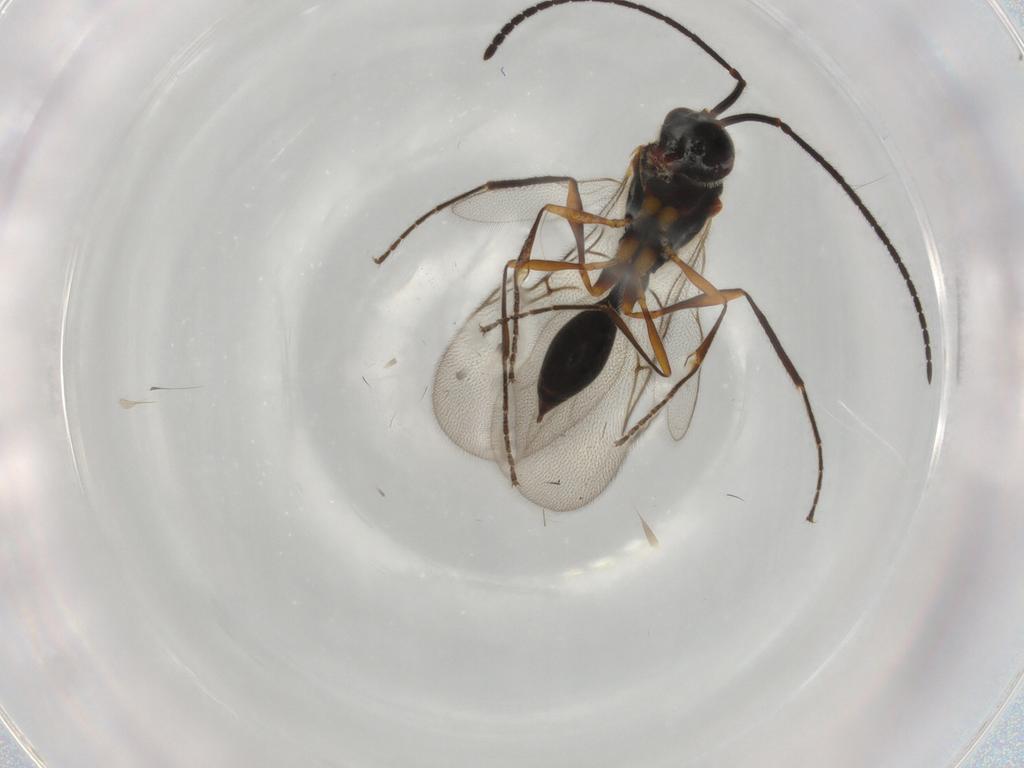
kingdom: Animalia
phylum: Arthropoda
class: Insecta
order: Hymenoptera
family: Diapriidae
